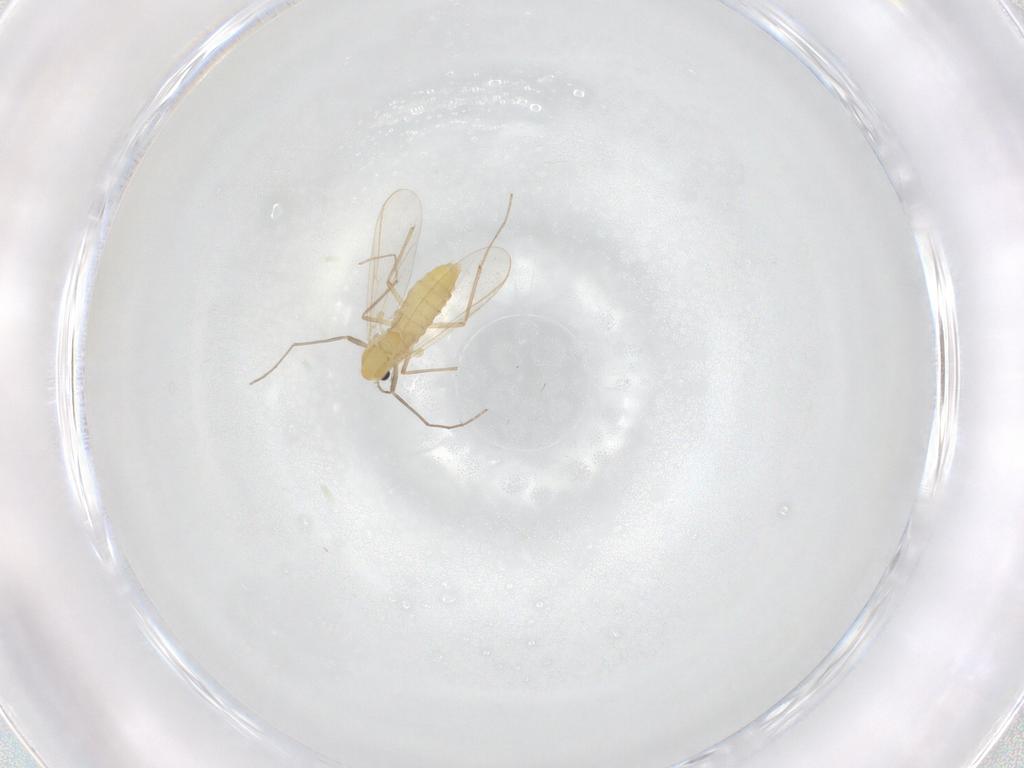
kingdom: Animalia
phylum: Arthropoda
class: Insecta
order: Diptera
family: Chironomidae
